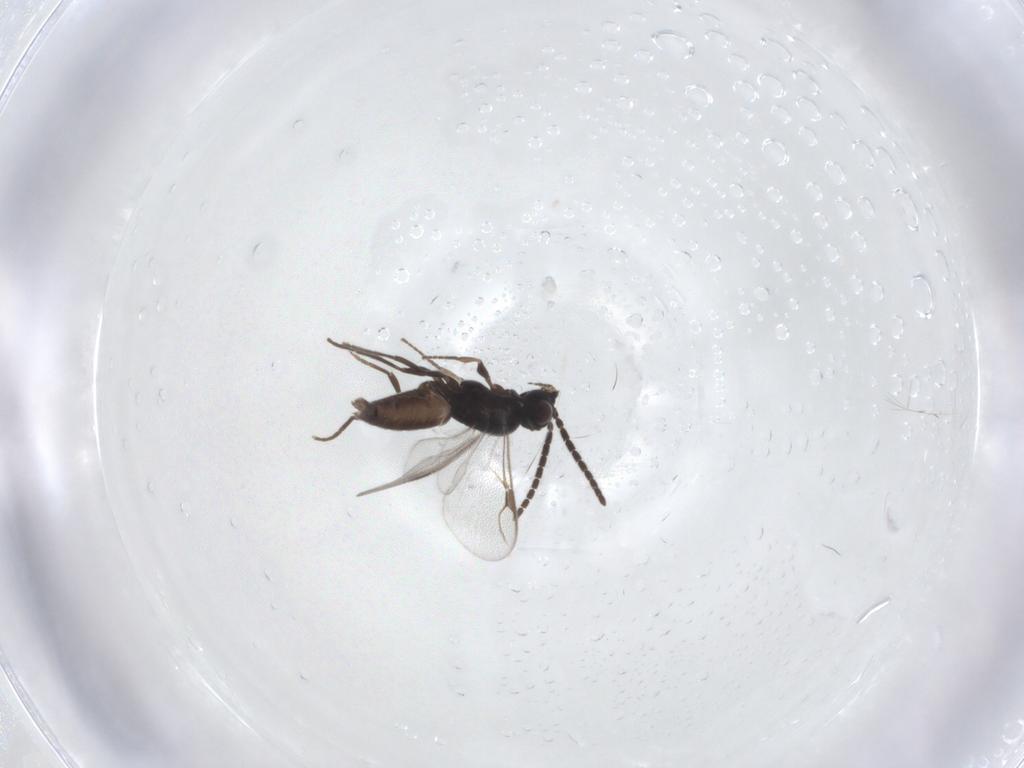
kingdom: Animalia
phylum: Arthropoda
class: Insecta
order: Hymenoptera
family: Dryinidae
